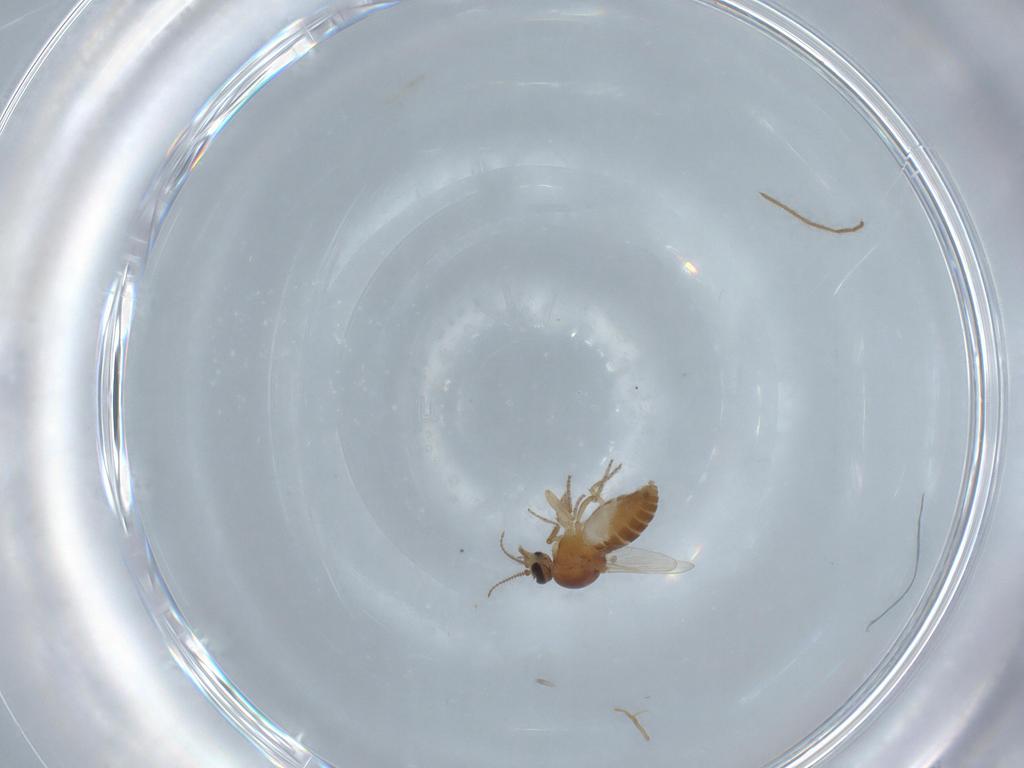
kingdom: Animalia
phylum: Arthropoda
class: Insecta
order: Diptera
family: Ceratopogonidae
